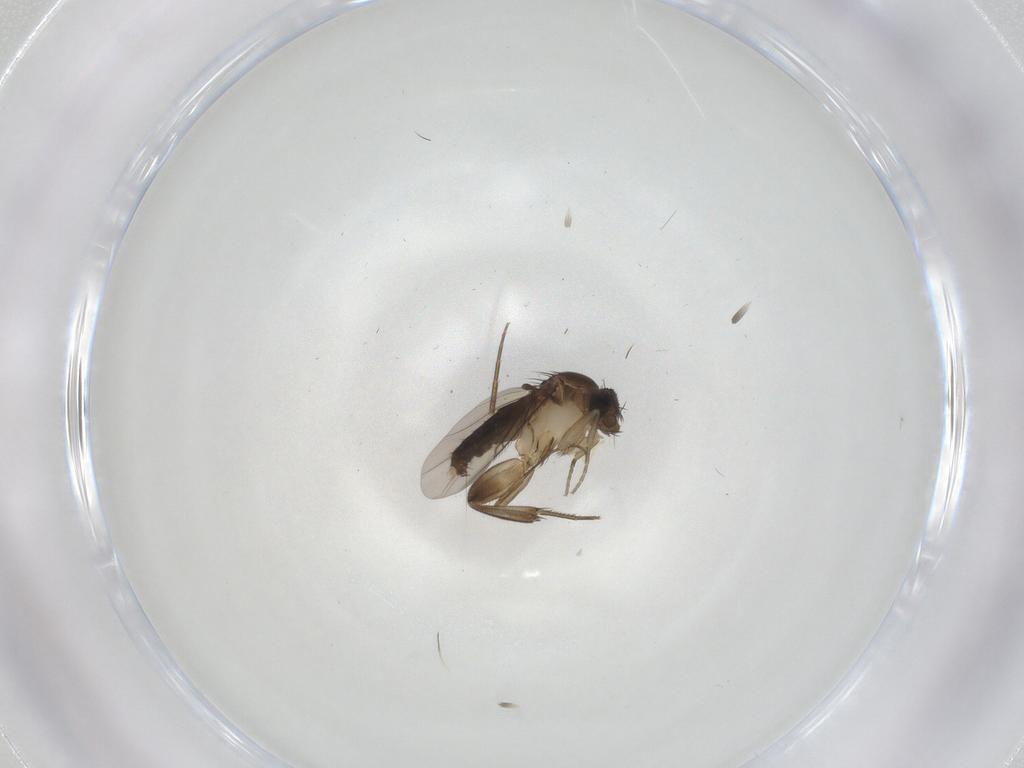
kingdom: Animalia
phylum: Arthropoda
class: Insecta
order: Diptera
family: Phoridae
